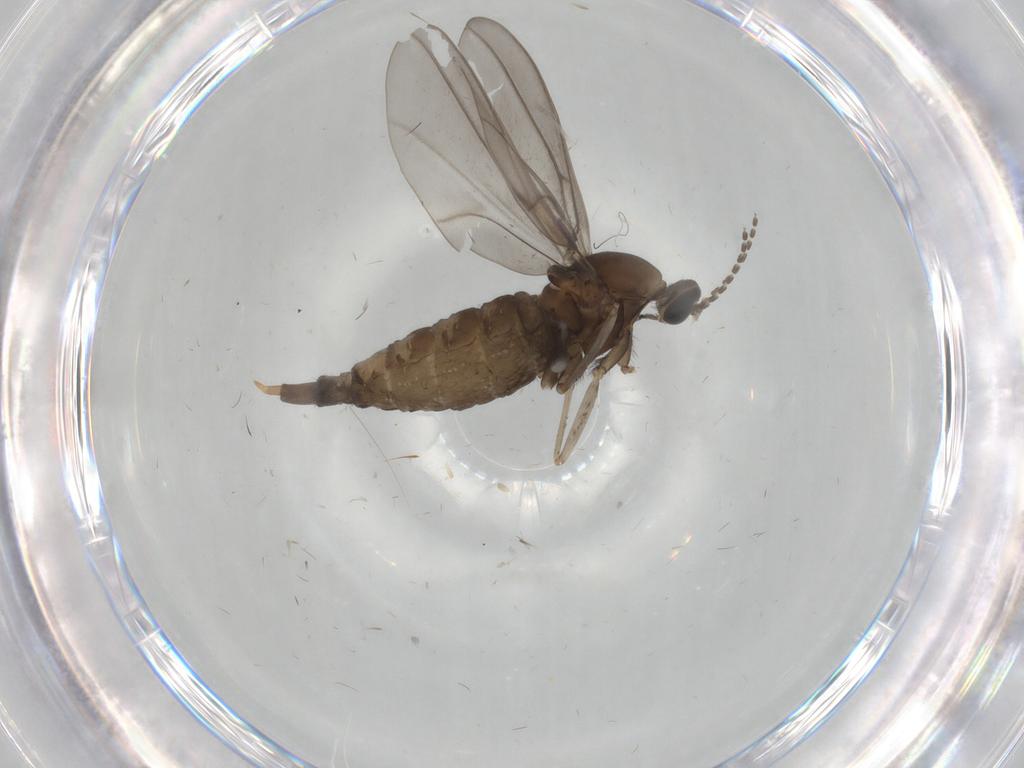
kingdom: Animalia
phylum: Arthropoda
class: Insecta
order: Diptera
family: Cecidomyiidae
